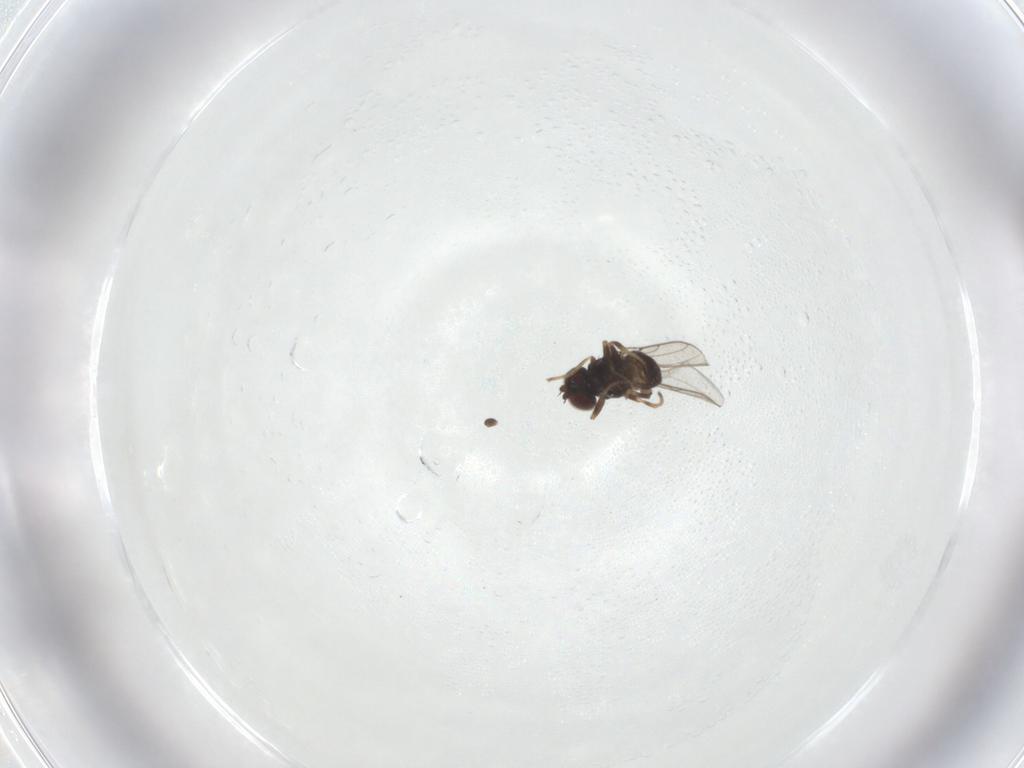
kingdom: Animalia
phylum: Arthropoda
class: Insecta
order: Diptera
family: Chloropidae
